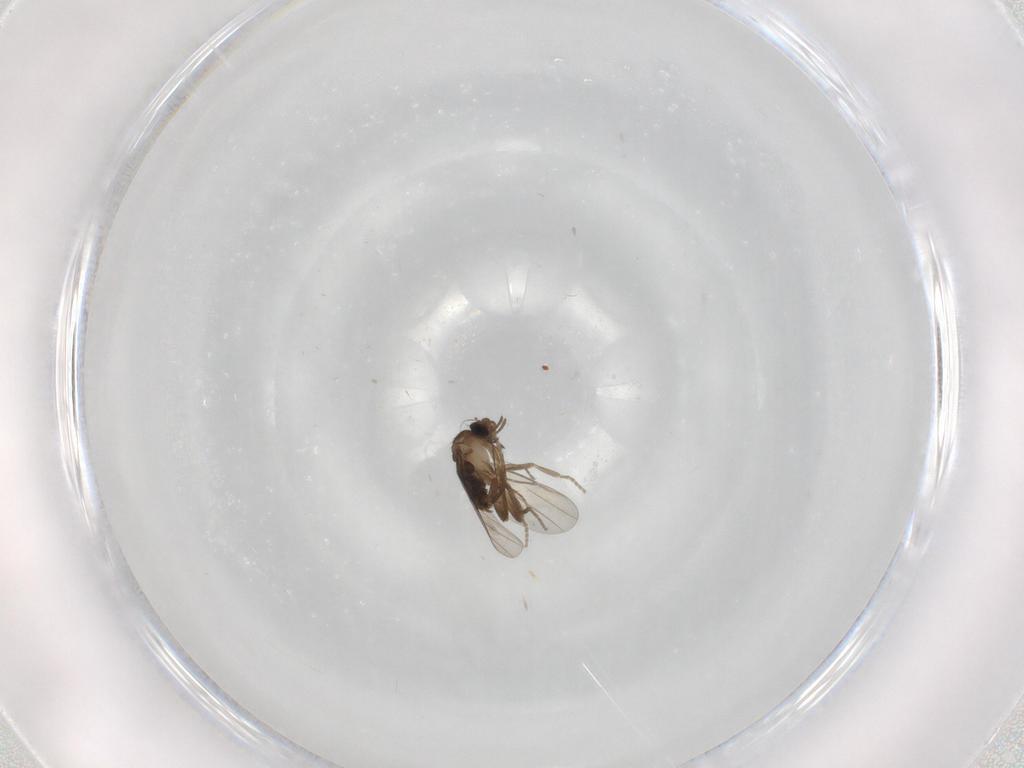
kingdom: Animalia
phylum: Arthropoda
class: Insecta
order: Diptera
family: Phoridae
